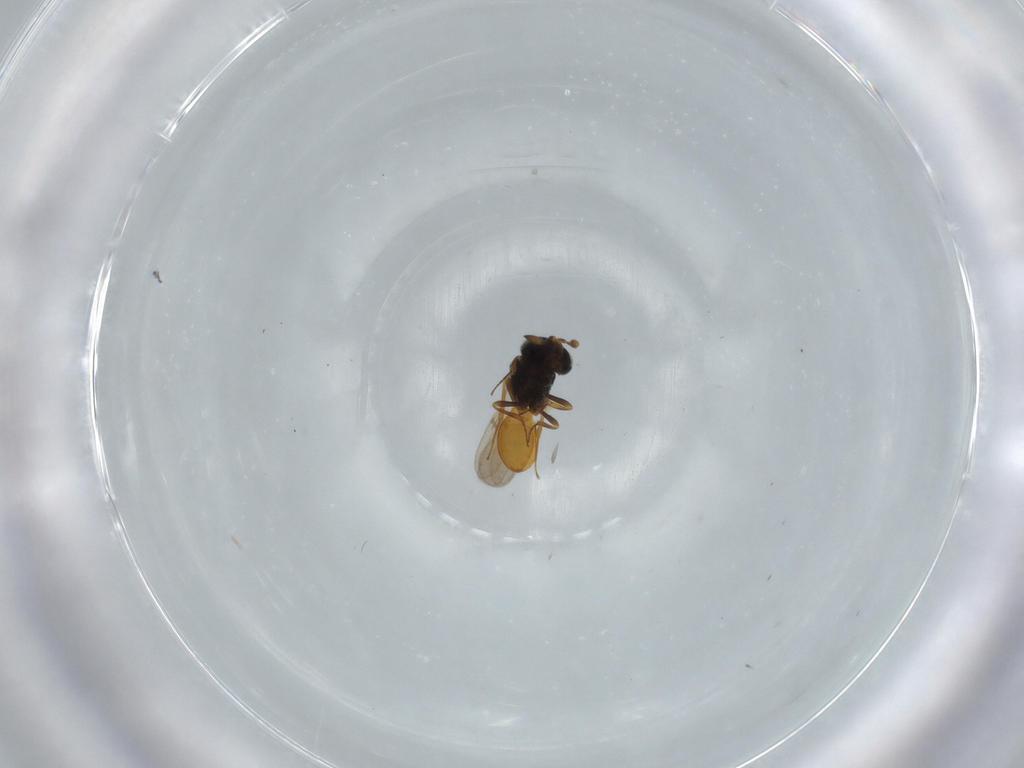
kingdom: Animalia
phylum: Arthropoda
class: Insecta
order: Hymenoptera
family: Scelionidae
